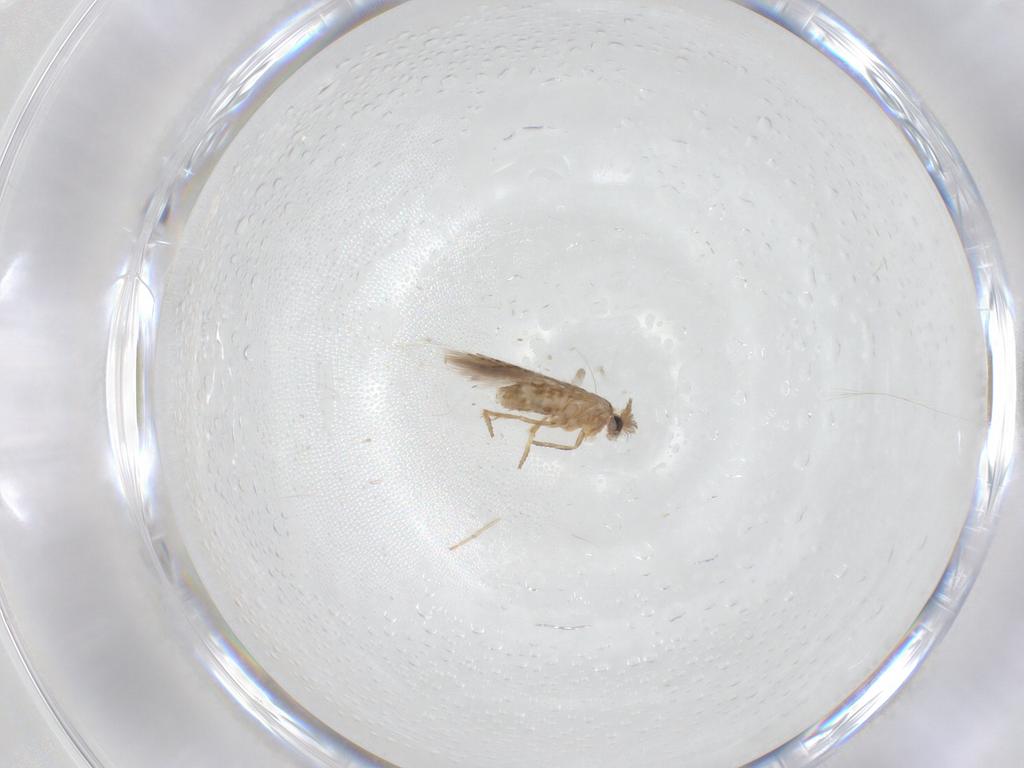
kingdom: Animalia
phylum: Arthropoda
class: Insecta
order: Lepidoptera
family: Nepticulidae
